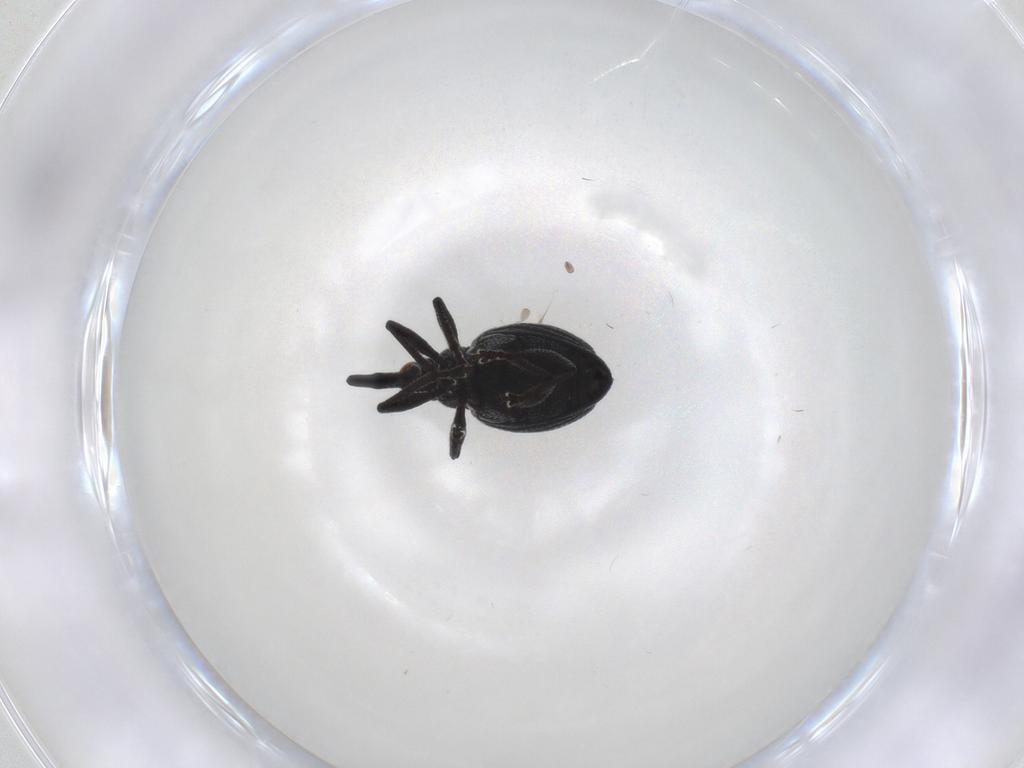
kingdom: Animalia
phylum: Arthropoda
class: Insecta
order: Coleoptera
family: Brentidae
